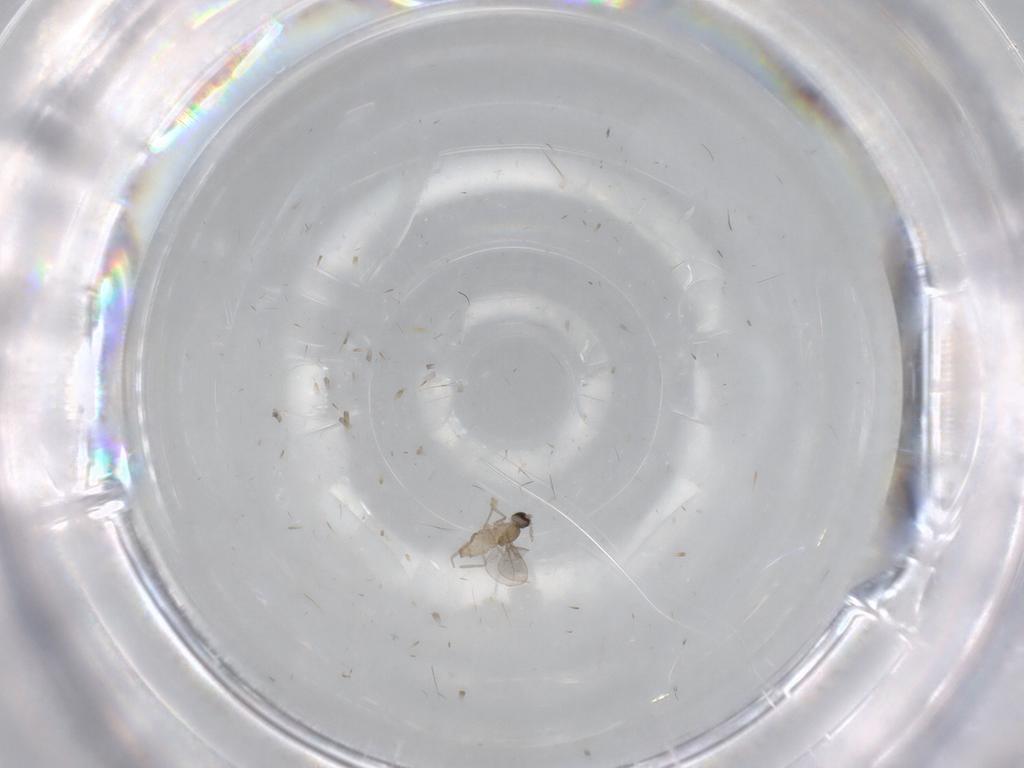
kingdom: Animalia
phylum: Arthropoda
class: Insecta
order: Diptera
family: Cecidomyiidae
